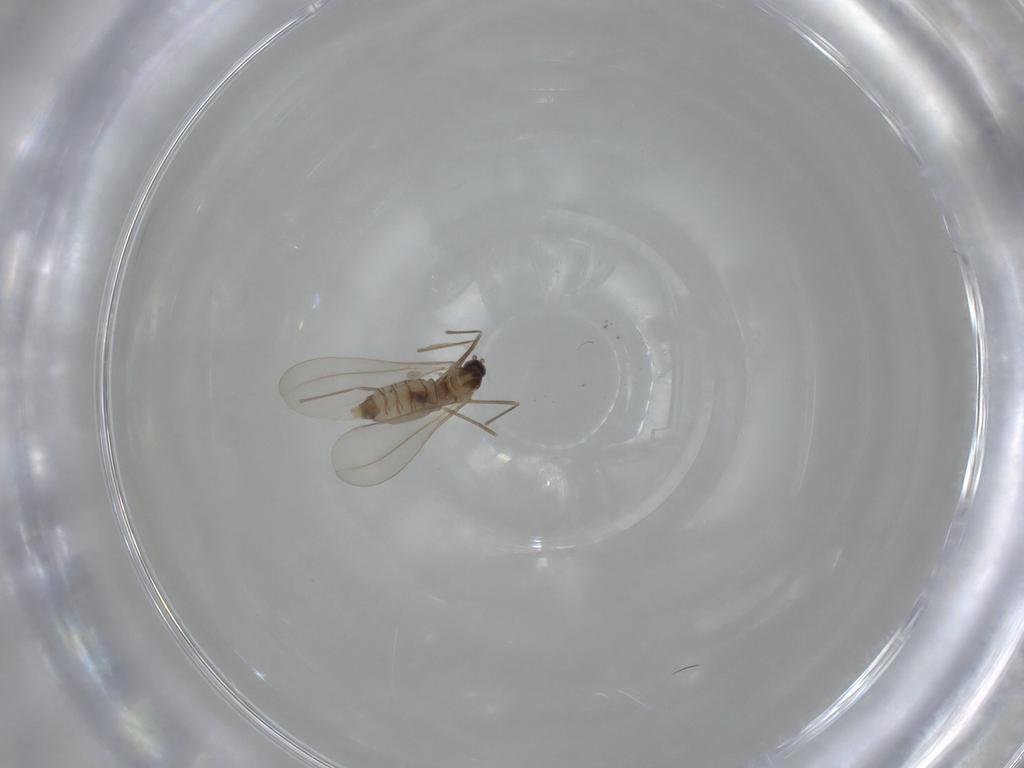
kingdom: Animalia
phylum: Arthropoda
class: Insecta
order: Diptera
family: Cecidomyiidae
